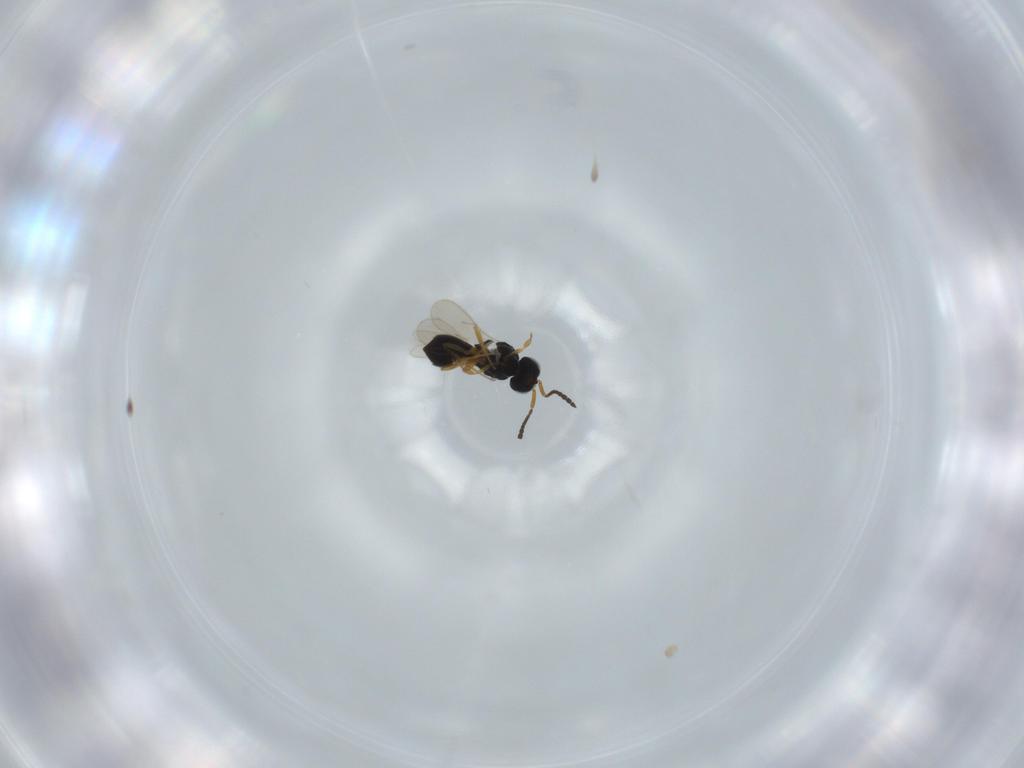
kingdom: Animalia
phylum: Arthropoda
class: Insecta
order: Hymenoptera
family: Scelionidae
